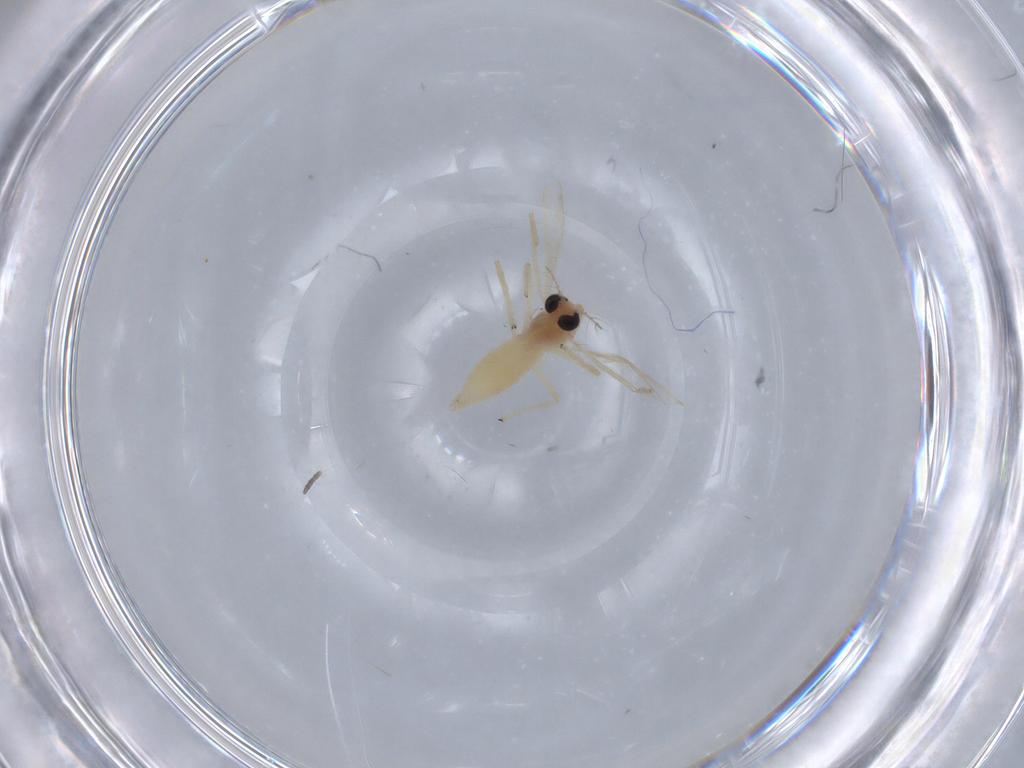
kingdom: Animalia
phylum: Arthropoda
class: Insecta
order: Diptera
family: Chironomidae
